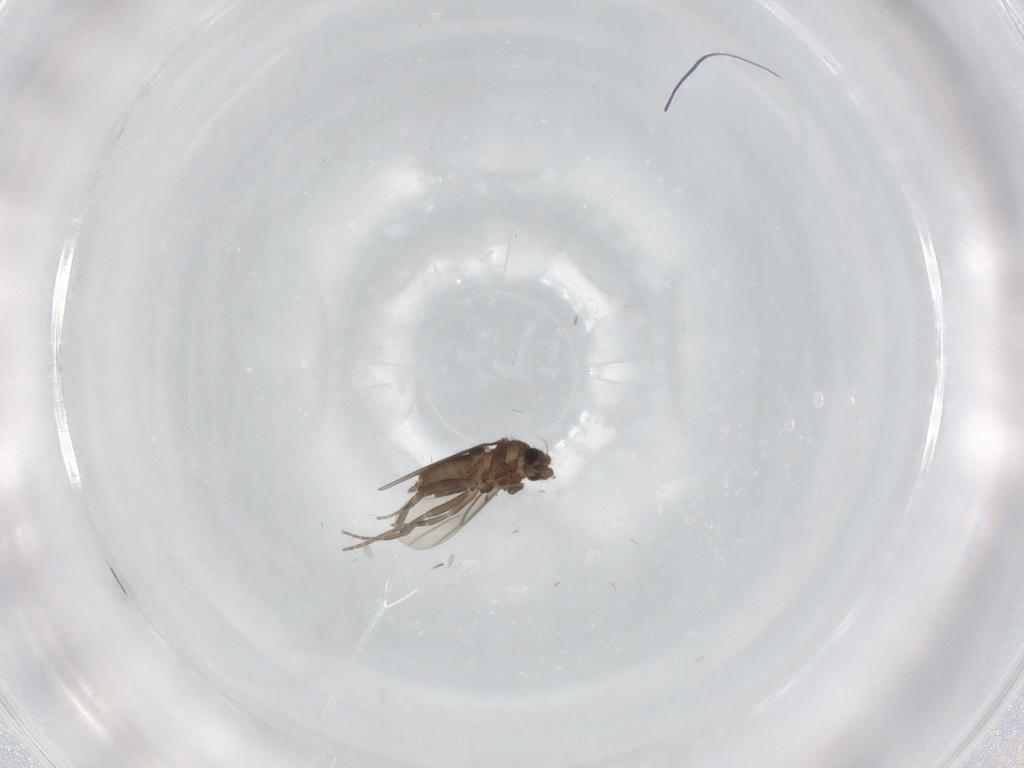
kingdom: Animalia
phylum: Arthropoda
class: Insecta
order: Diptera
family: Phoridae
